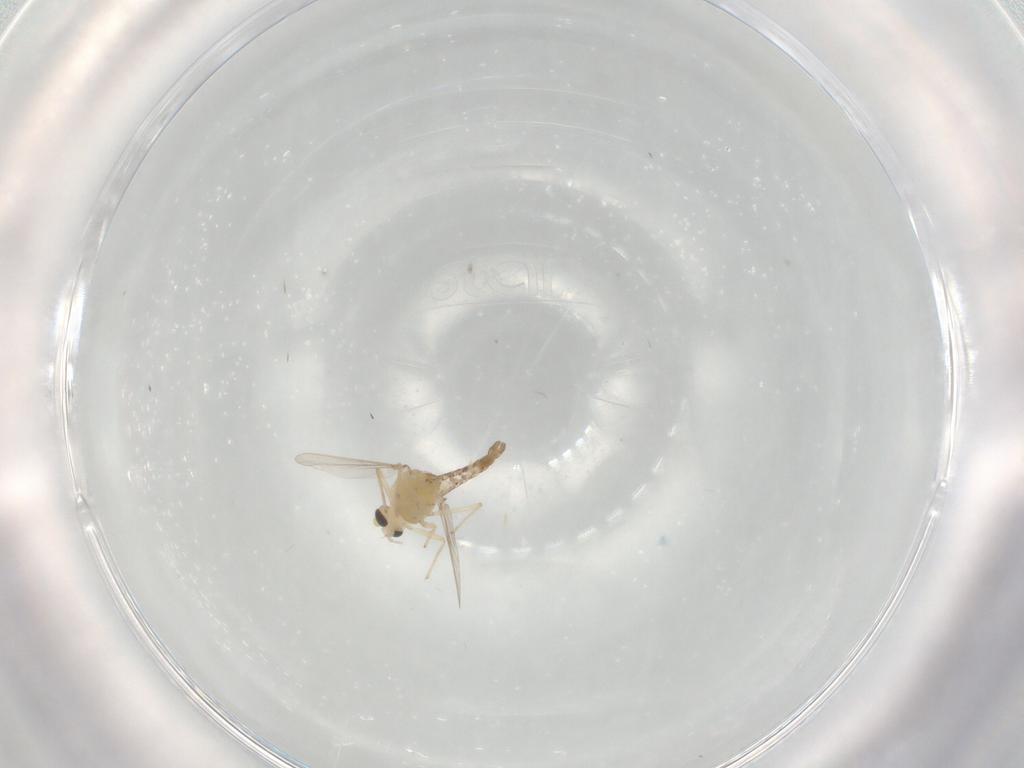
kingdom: Animalia
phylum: Arthropoda
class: Insecta
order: Diptera
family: Chironomidae
